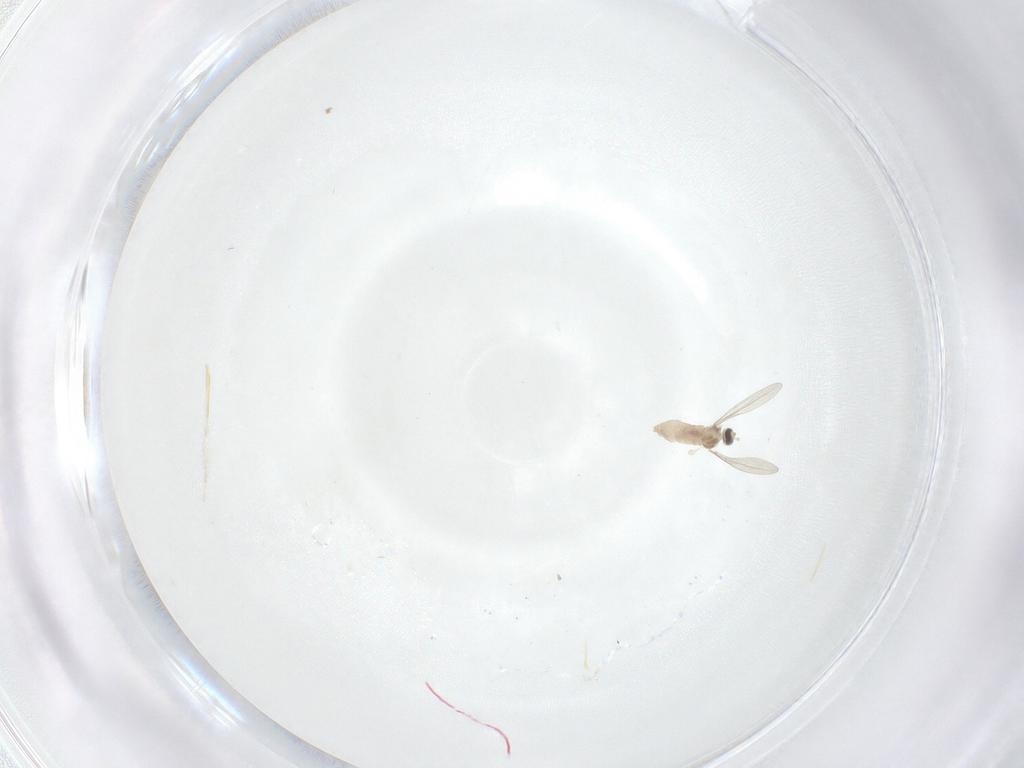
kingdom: Animalia
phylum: Arthropoda
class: Insecta
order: Diptera
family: Cecidomyiidae
